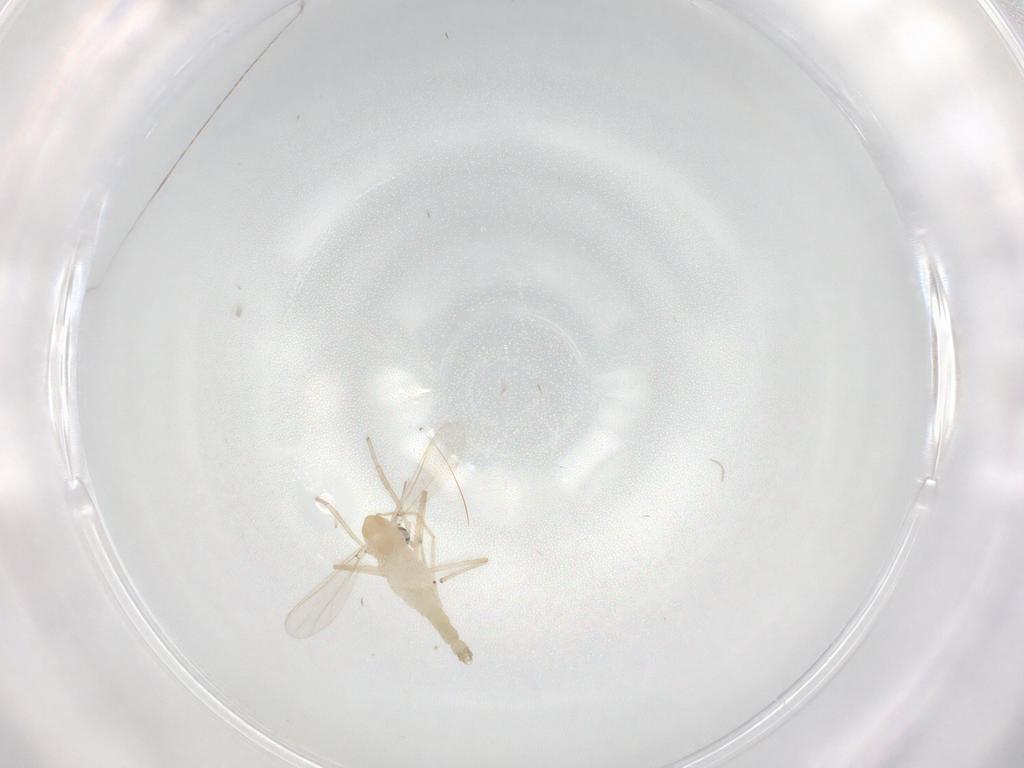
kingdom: Animalia
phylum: Arthropoda
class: Insecta
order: Diptera
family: Chironomidae
